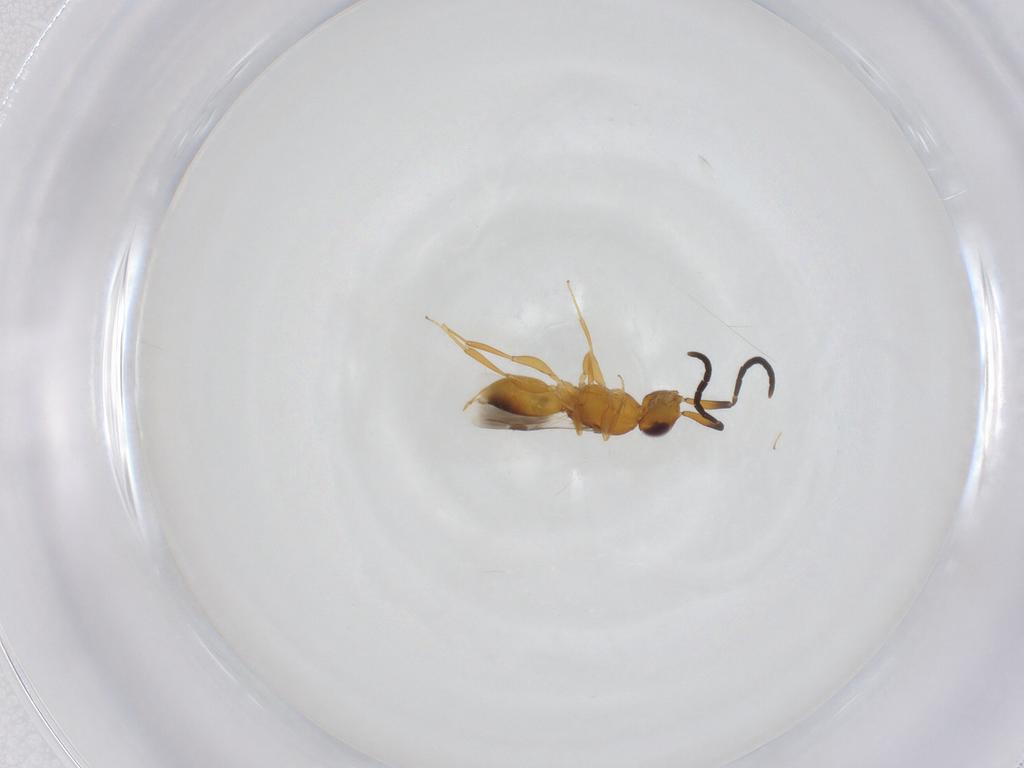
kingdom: Animalia
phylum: Arthropoda
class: Insecta
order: Hymenoptera
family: Megaspilidae
